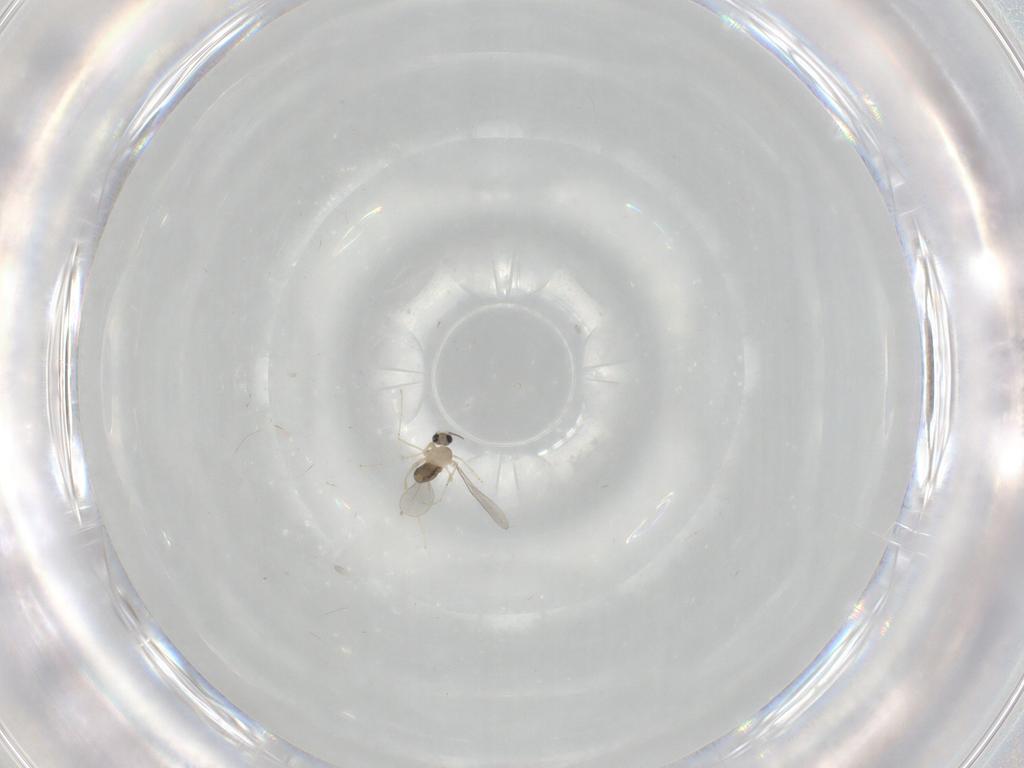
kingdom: Animalia
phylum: Arthropoda
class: Insecta
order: Diptera
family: Cecidomyiidae
